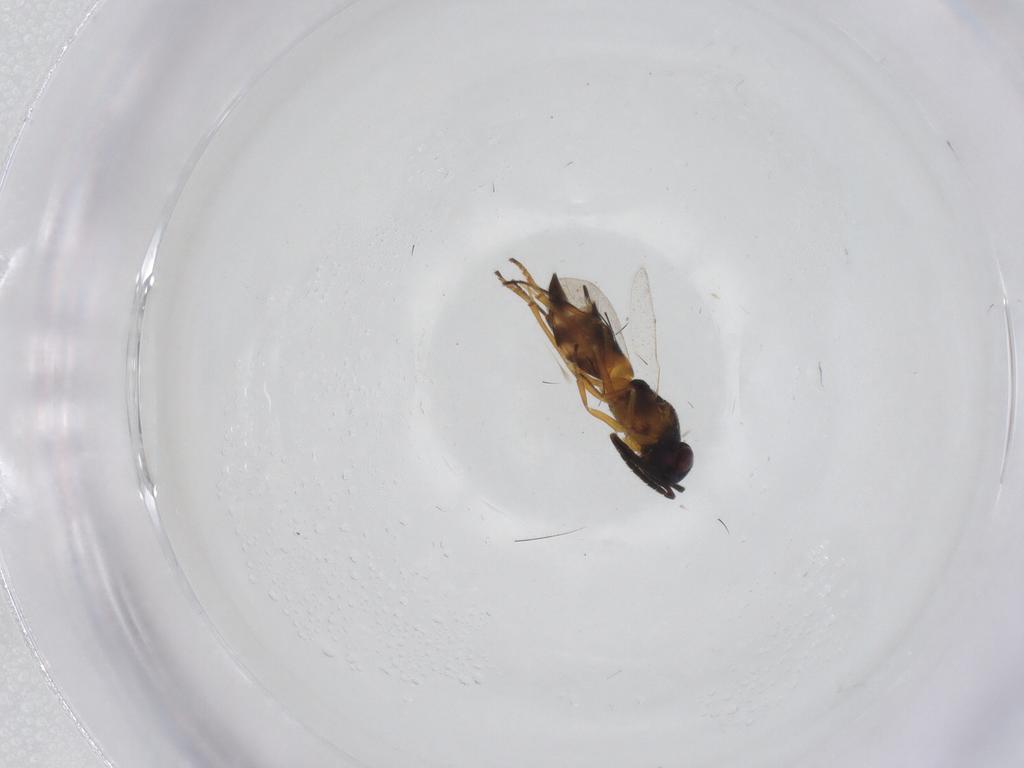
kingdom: Animalia
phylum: Arthropoda
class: Insecta
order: Hymenoptera
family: Encyrtidae
